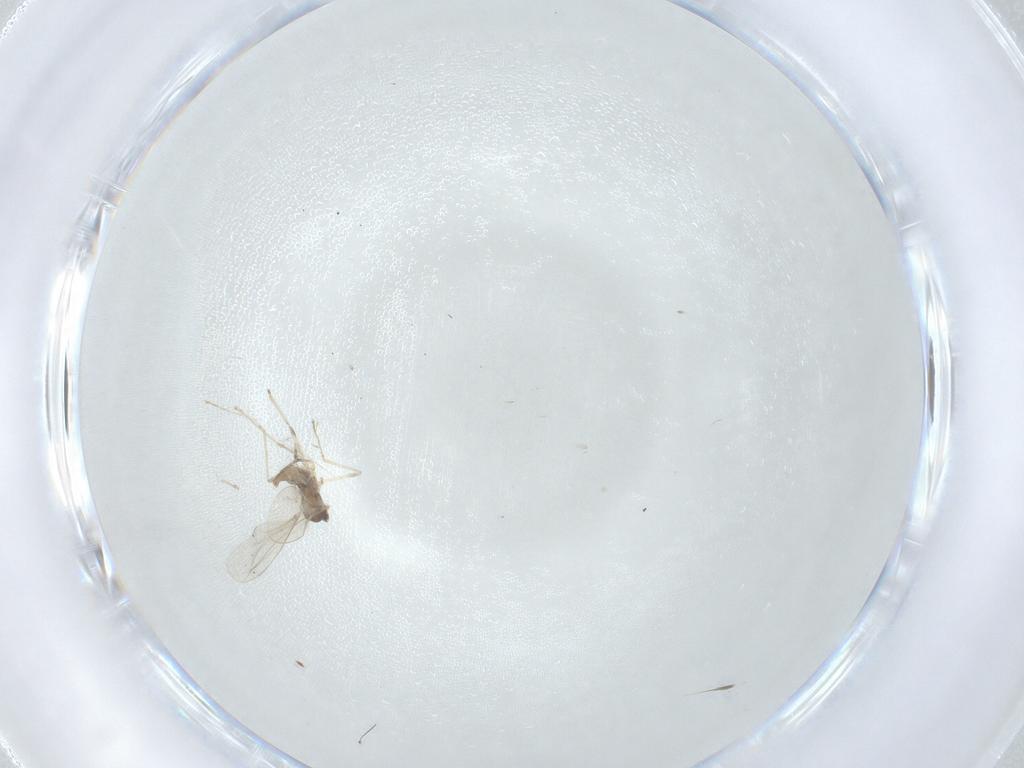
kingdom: Animalia
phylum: Arthropoda
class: Insecta
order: Diptera
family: Cecidomyiidae
